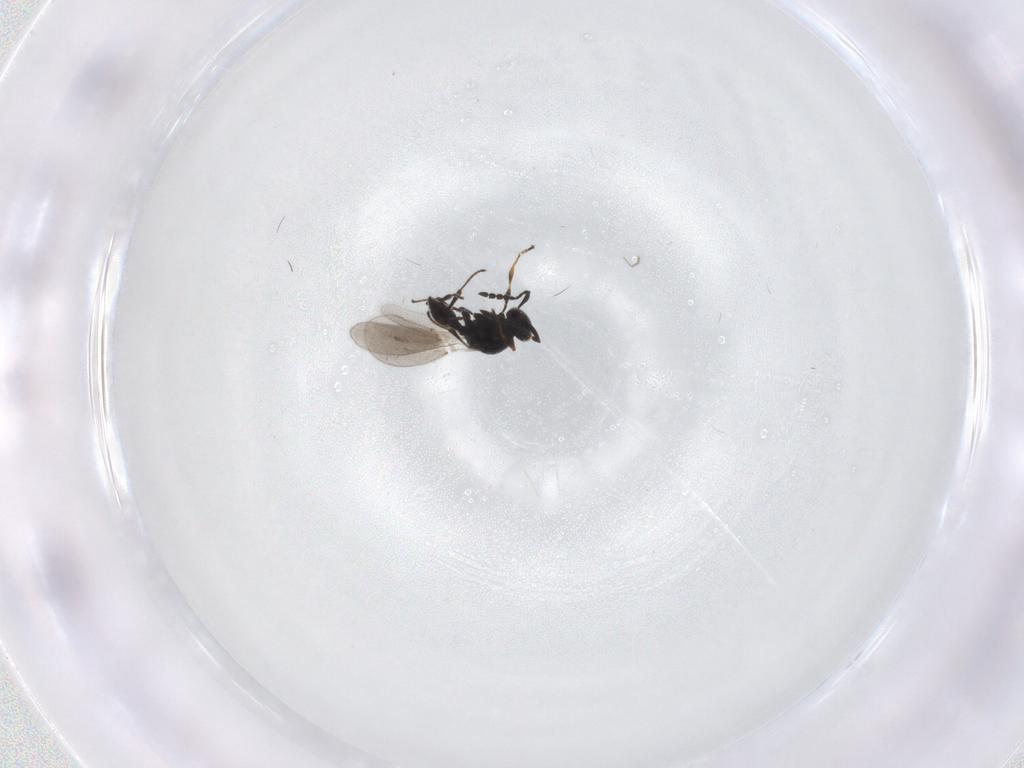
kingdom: Animalia
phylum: Arthropoda
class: Insecta
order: Hymenoptera
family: Platygastridae
